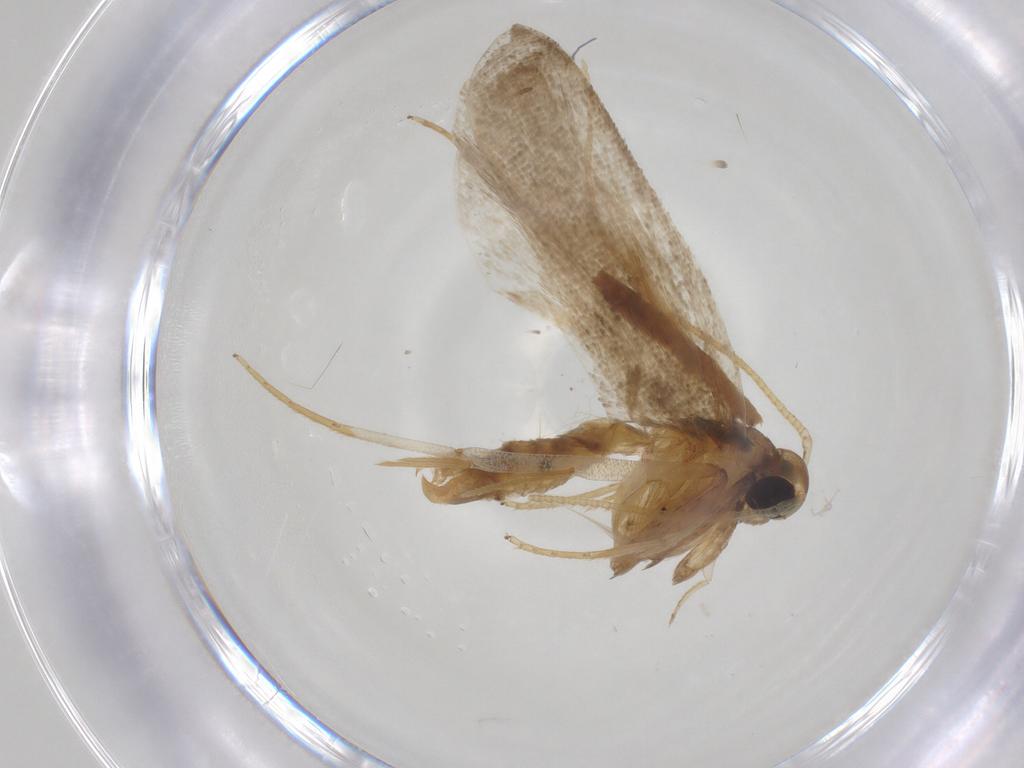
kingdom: Animalia
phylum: Arthropoda
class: Insecta
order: Lepidoptera
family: Lecithoceridae
